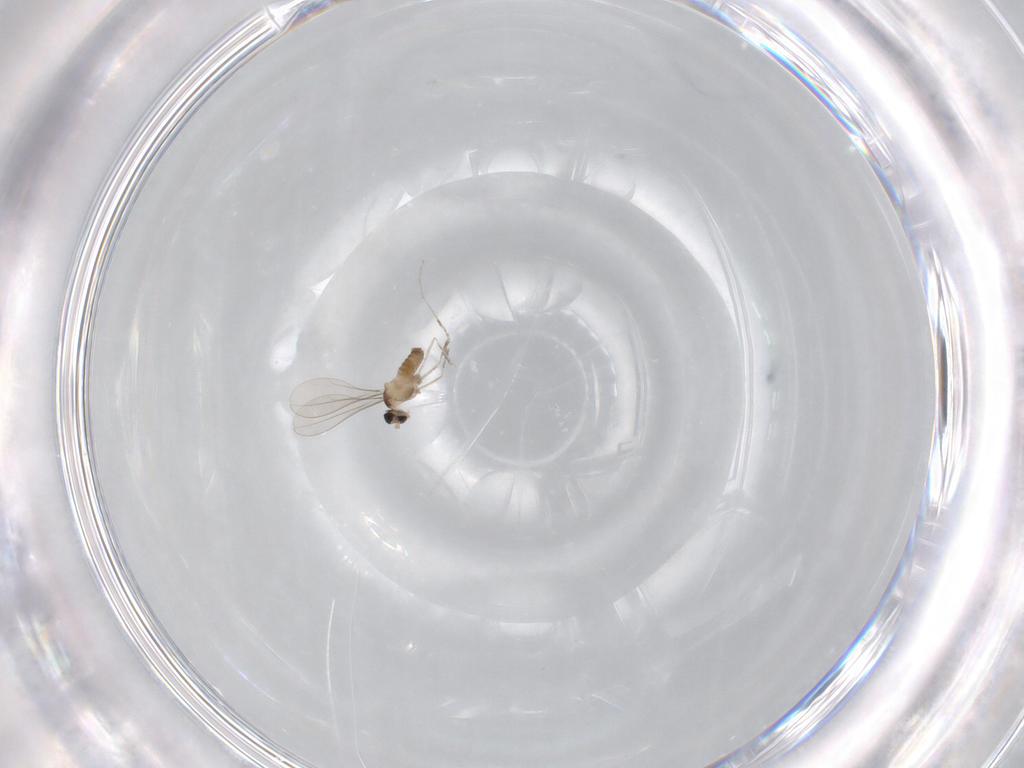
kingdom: Animalia
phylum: Arthropoda
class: Insecta
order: Diptera
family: Cecidomyiidae
